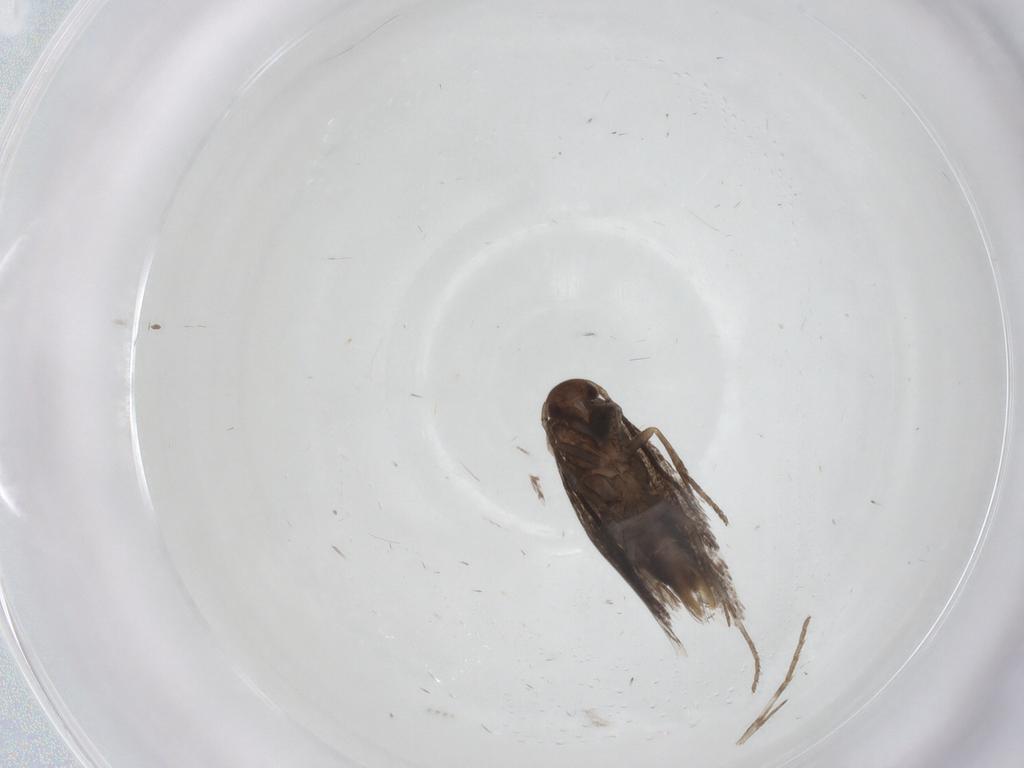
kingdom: Animalia
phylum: Arthropoda
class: Insecta
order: Lepidoptera
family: Elachistidae
